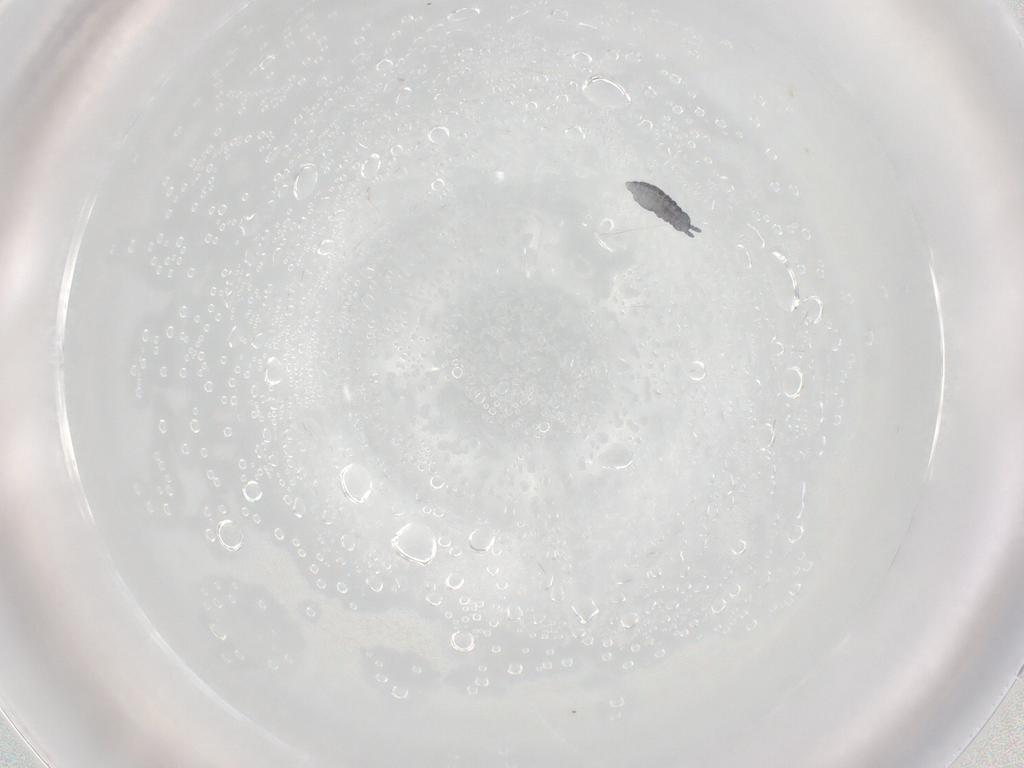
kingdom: Animalia
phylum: Arthropoda
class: Collembola
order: Poduromorpha
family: Hypogastruridae
